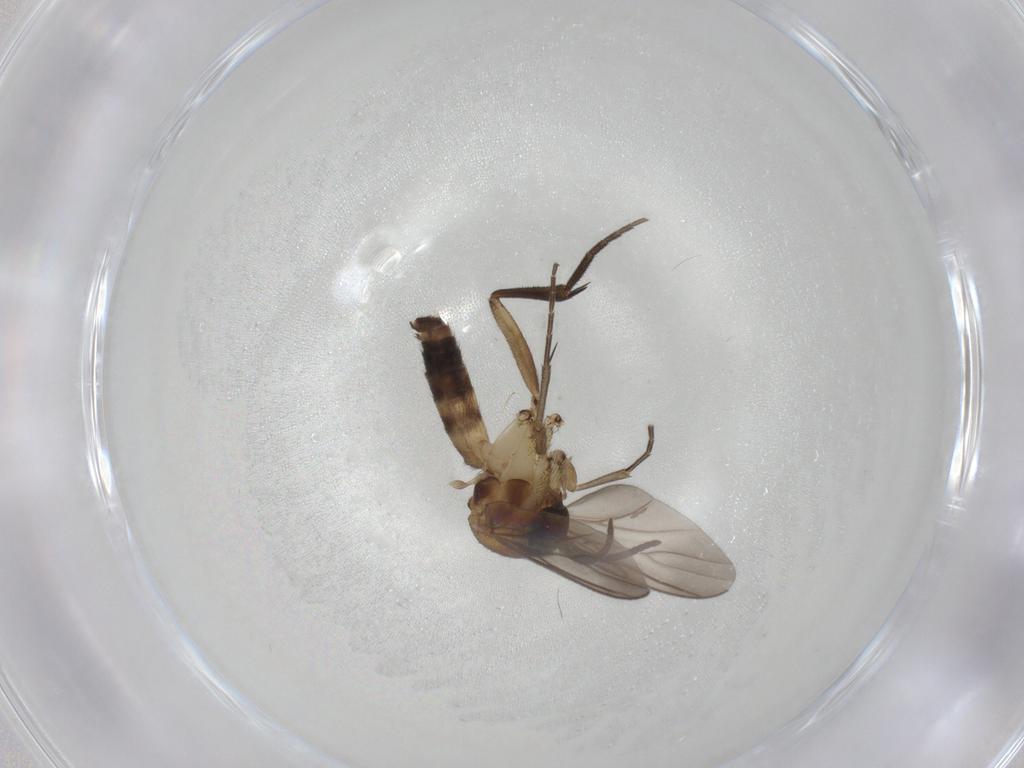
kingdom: Animalia
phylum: Arthropoda
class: Insecta
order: Diptera
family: Mycetophilidae
